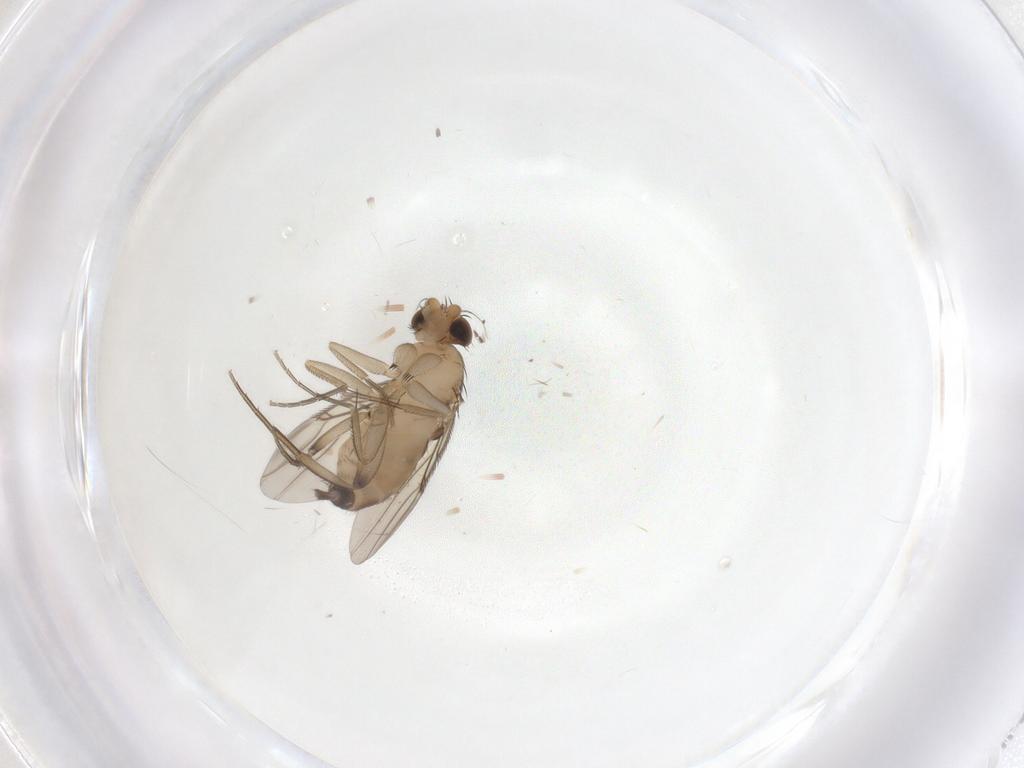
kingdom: Animalia
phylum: Arthropoda
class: Insecta
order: Diptera
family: Phoridae
